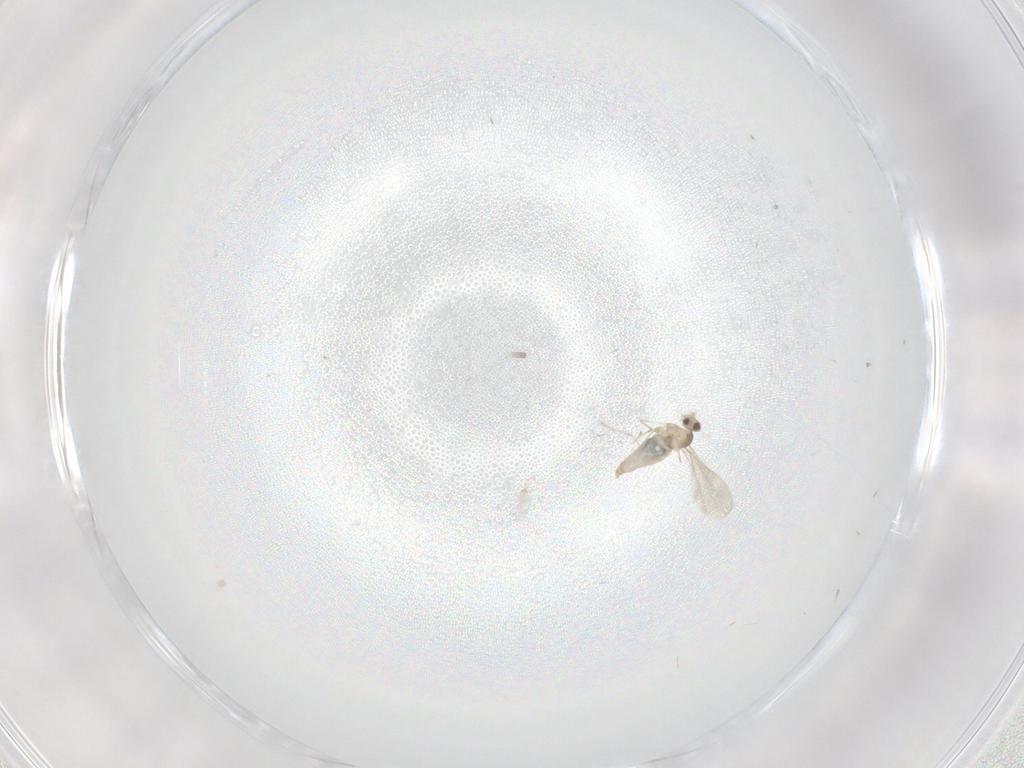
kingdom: Animalia
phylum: Arthropoda
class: Insecta
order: Diptera
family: Cecidomyiidae
